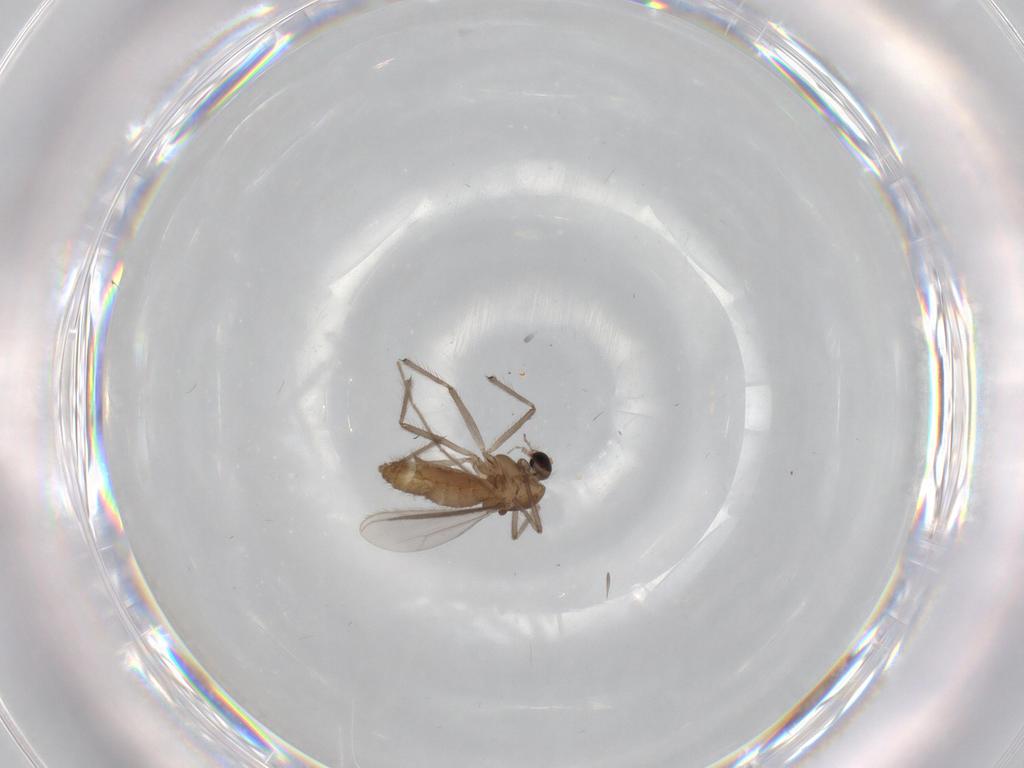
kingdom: Animalia
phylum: Arthropoda
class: Insecta
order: Diptera
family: Chironomidae
